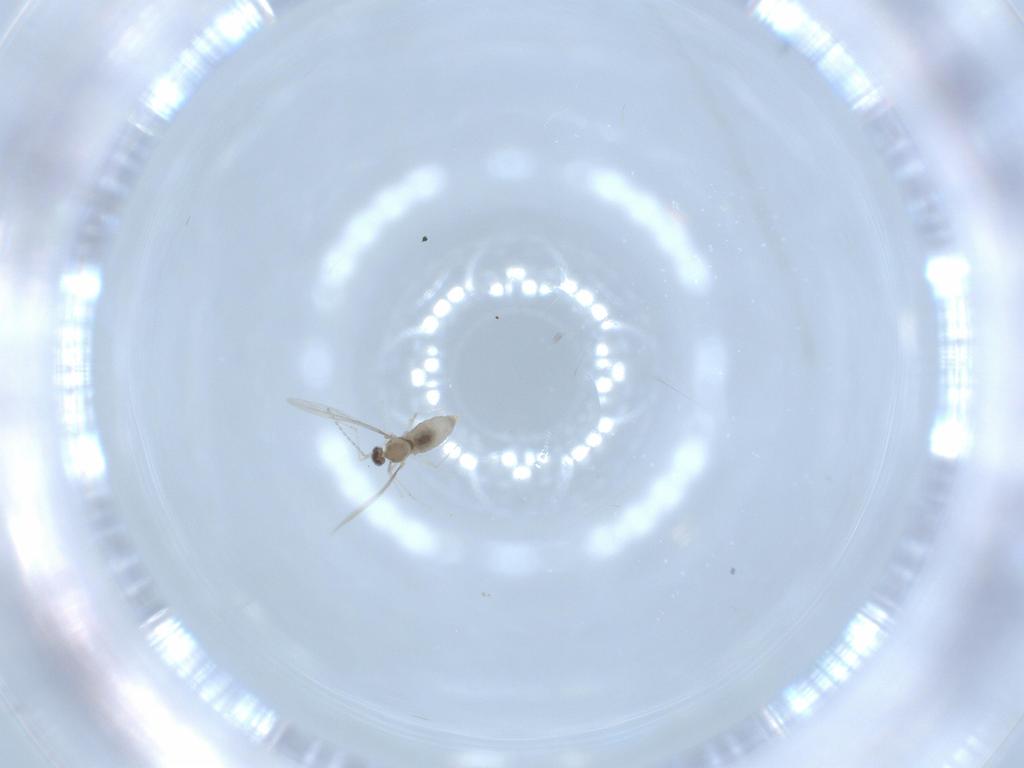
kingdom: Animalia
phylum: Arthropoda
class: Insecta
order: Diptera
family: Cecidomyiidae
